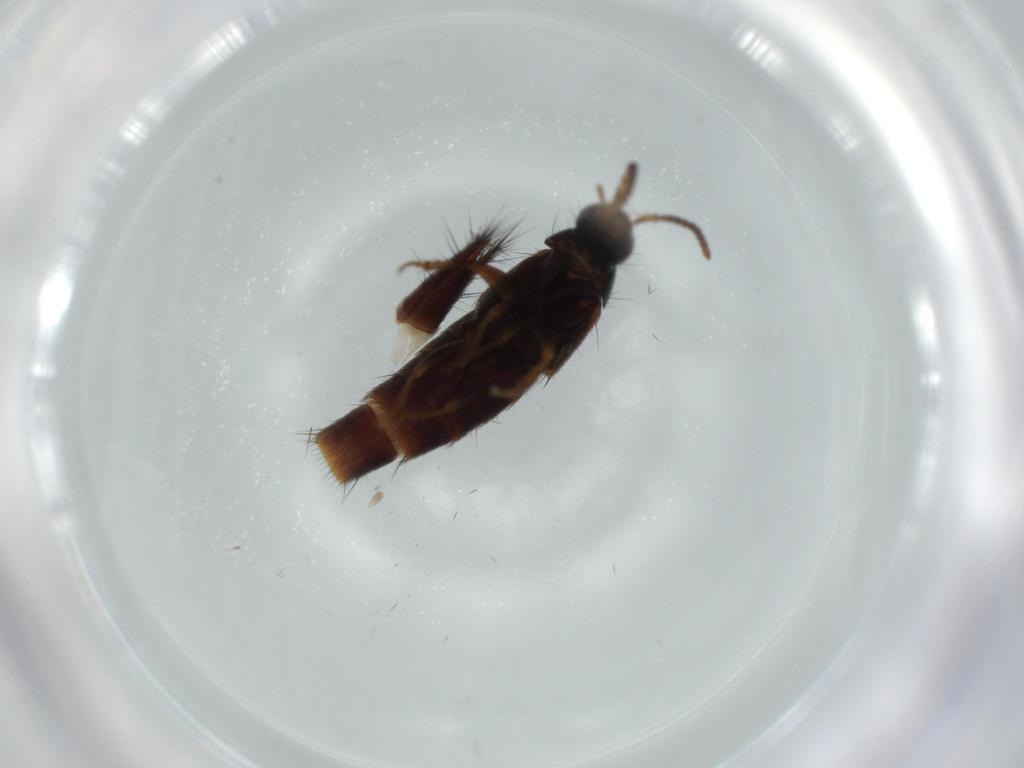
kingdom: Animalia
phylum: Arthropoda
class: Insecta
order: Coleoptera
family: Staphylinidae
